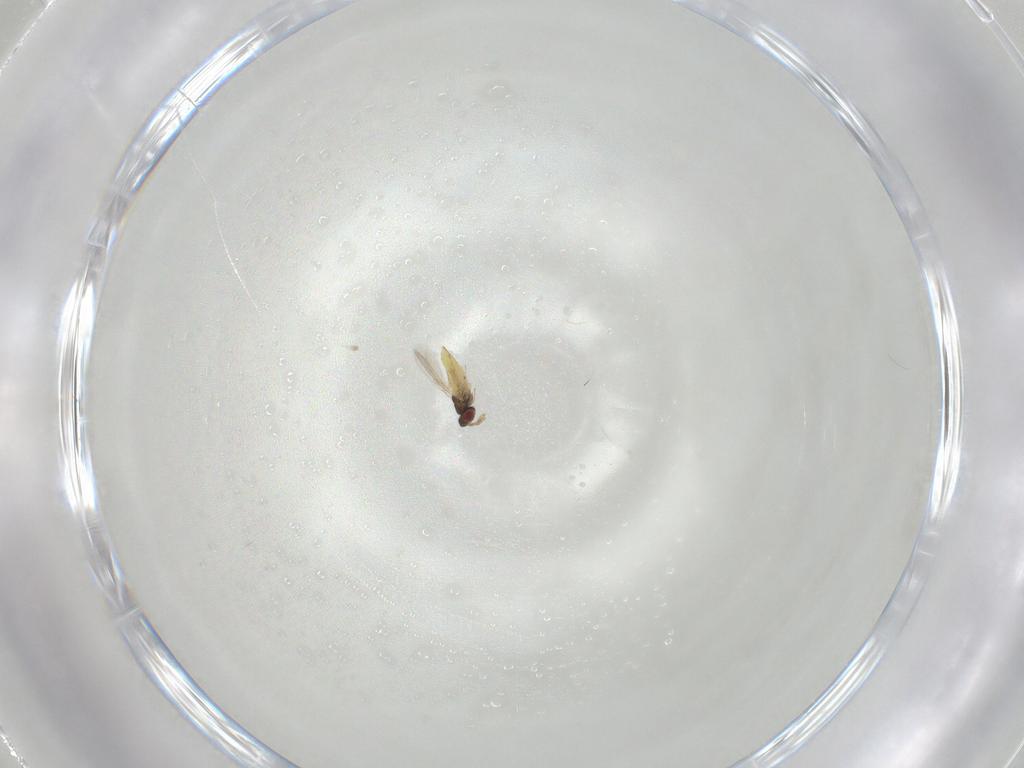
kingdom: Animalia
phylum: Arthropoda
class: Insecta
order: Hymenoptera
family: Trichogrammatidae
